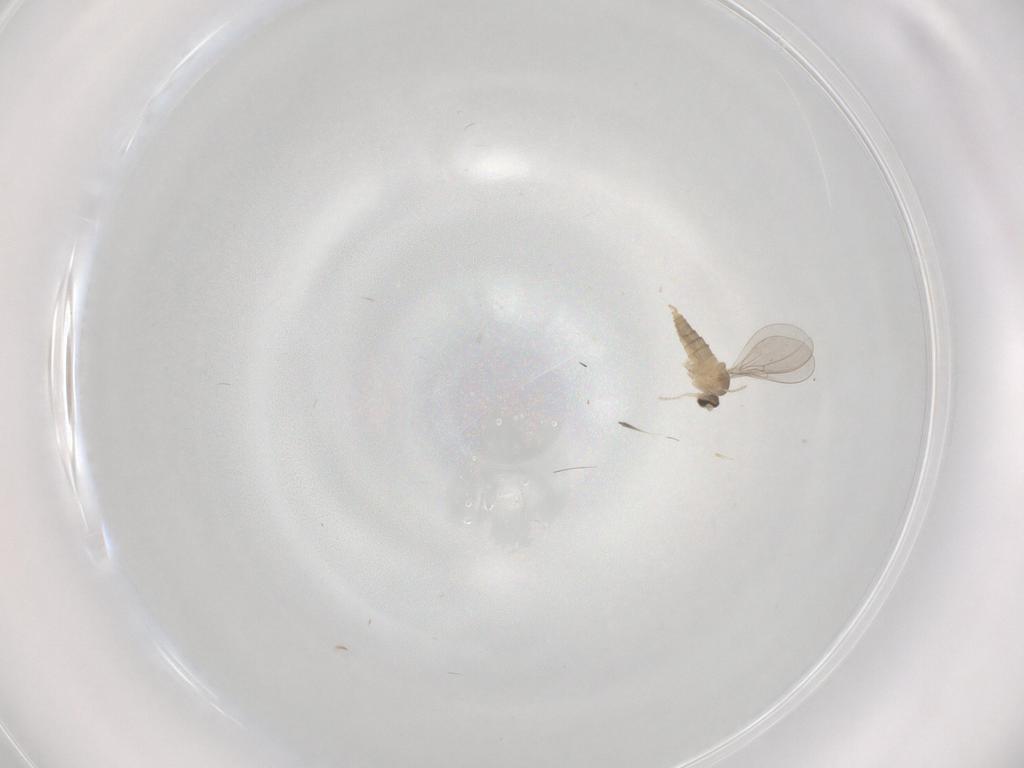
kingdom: Animalia
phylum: Arthropoda
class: Insecta
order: Diptera
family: Cecidomyiidae
